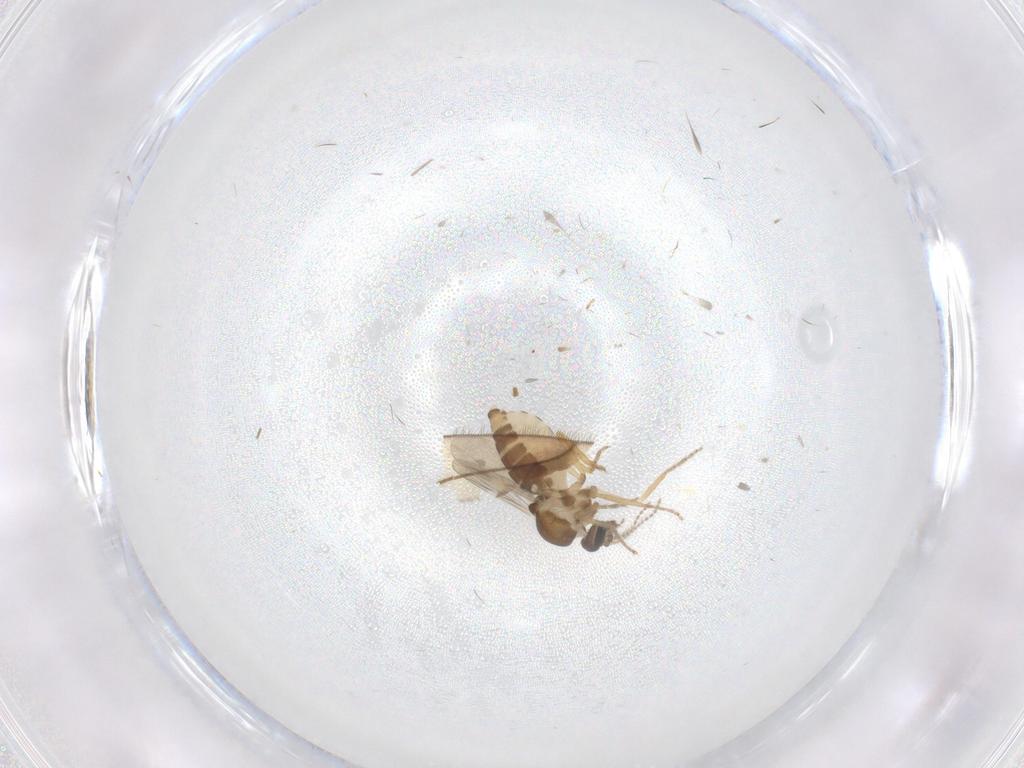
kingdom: Animalia
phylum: Arthropoda
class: Insecta
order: Diptera
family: Ceratopogonidae
